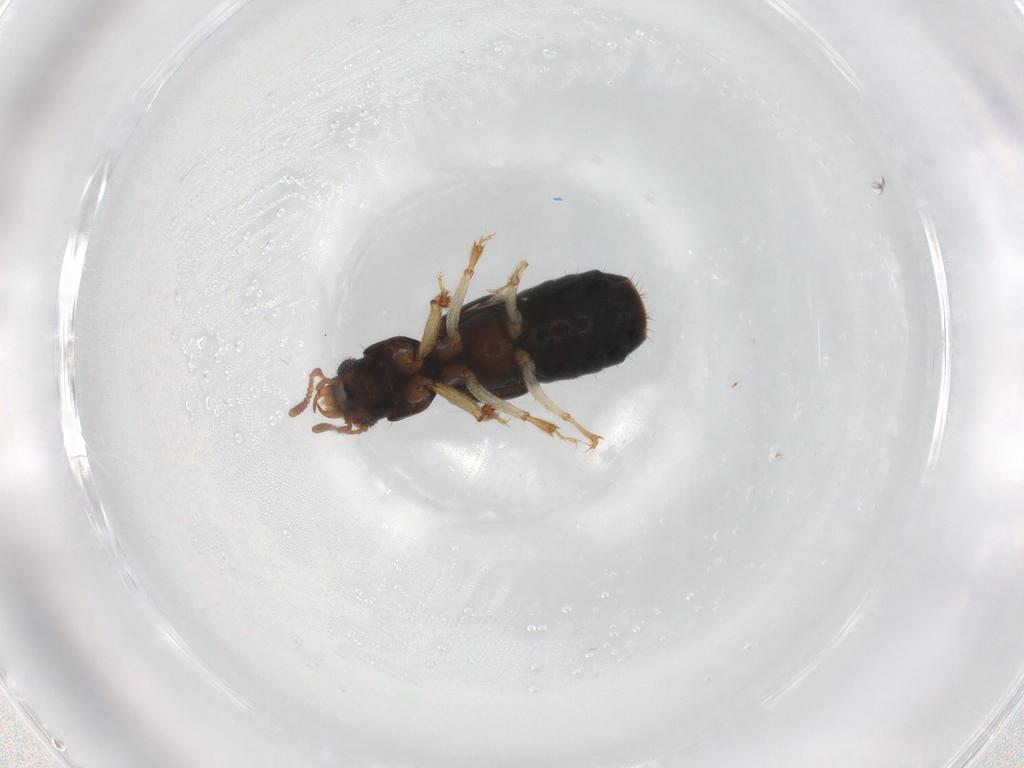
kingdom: Animalia
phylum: Arthropoda
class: Insecta
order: Coleoptera
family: Staphylinidae
